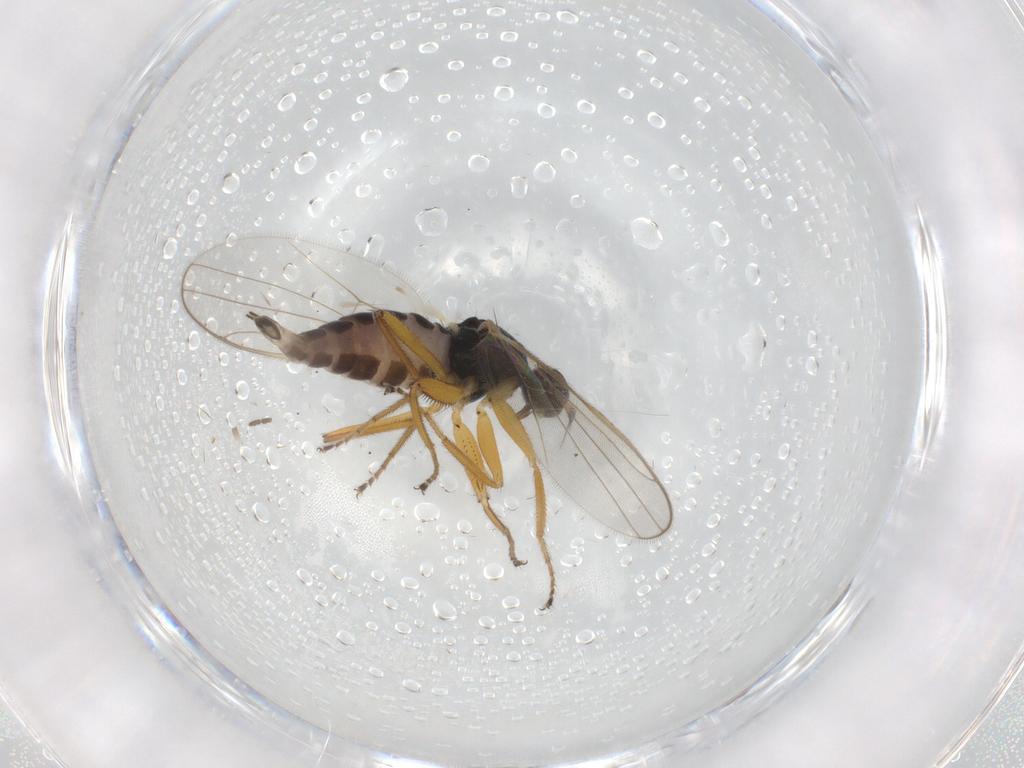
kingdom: Animalia
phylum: Arthropoda
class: Insecta
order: Diptera
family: Hybotidae
